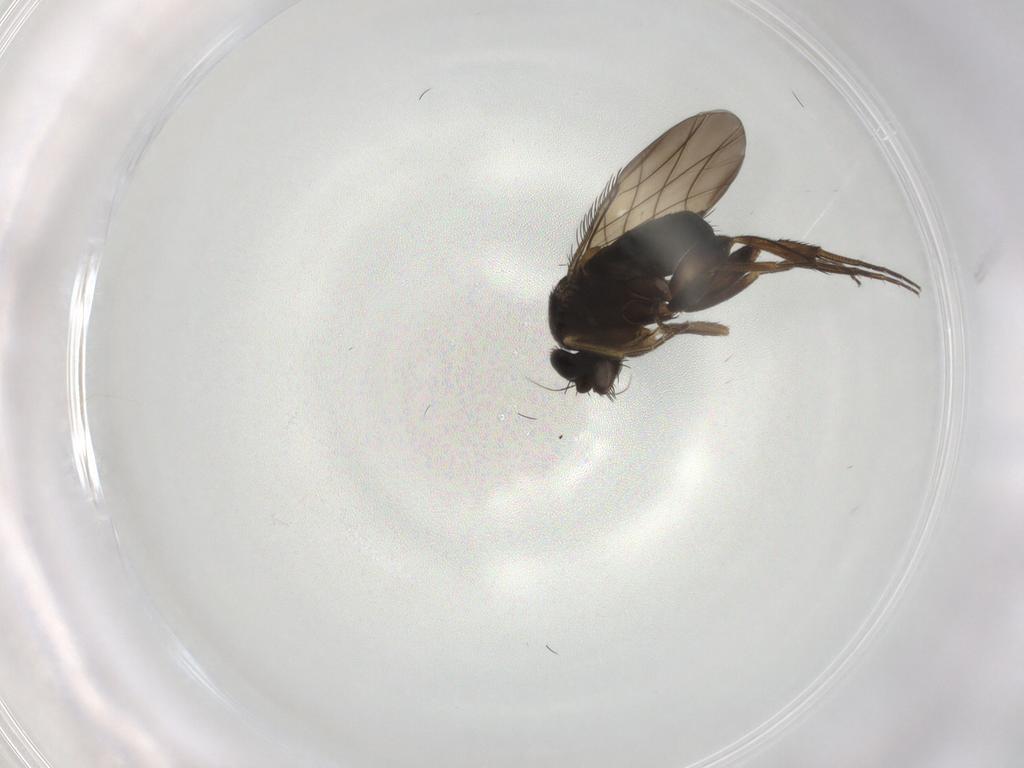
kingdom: Animalia
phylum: Arthropoda
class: Insecta
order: Diptera
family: Phoridae
